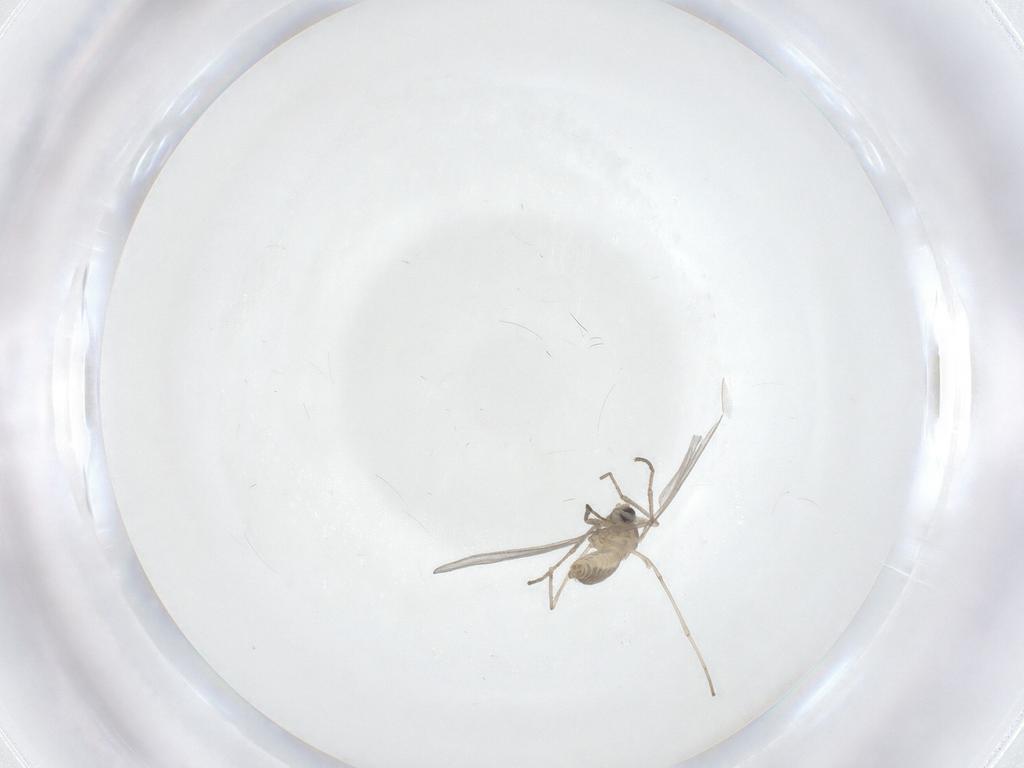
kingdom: Animalia
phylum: Arthropoda
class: Insecta
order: Diptera
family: Cecidomyiidae
